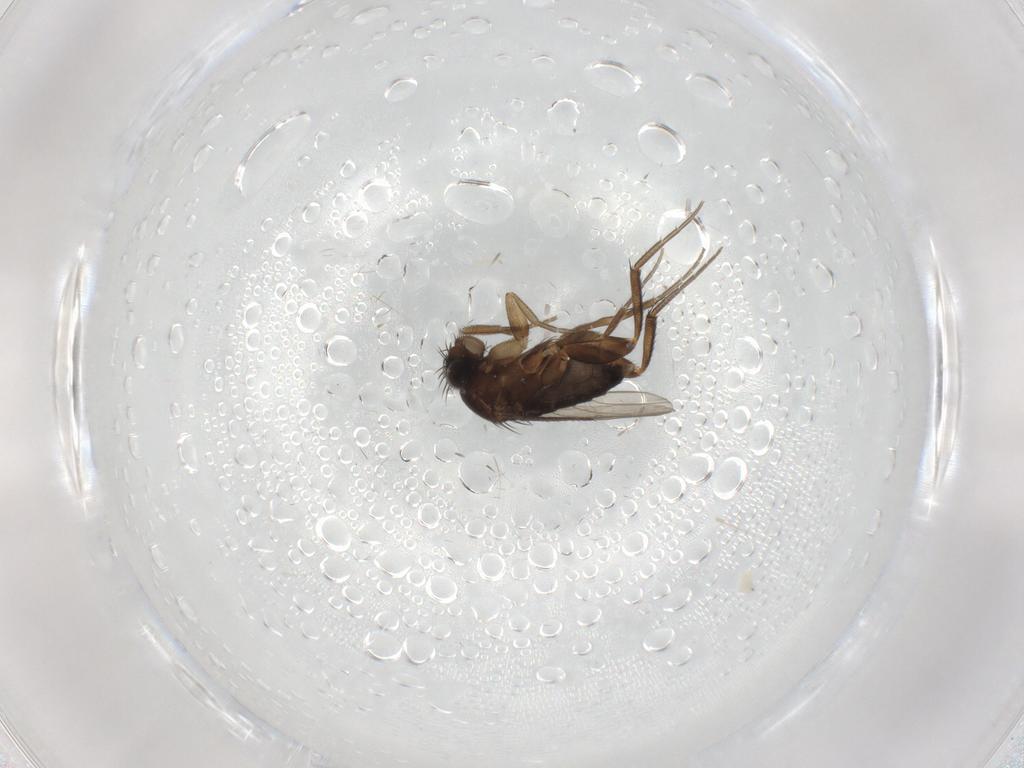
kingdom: Animalia
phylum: Arthropoda
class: Insecta
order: Diptera
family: Phoridae
